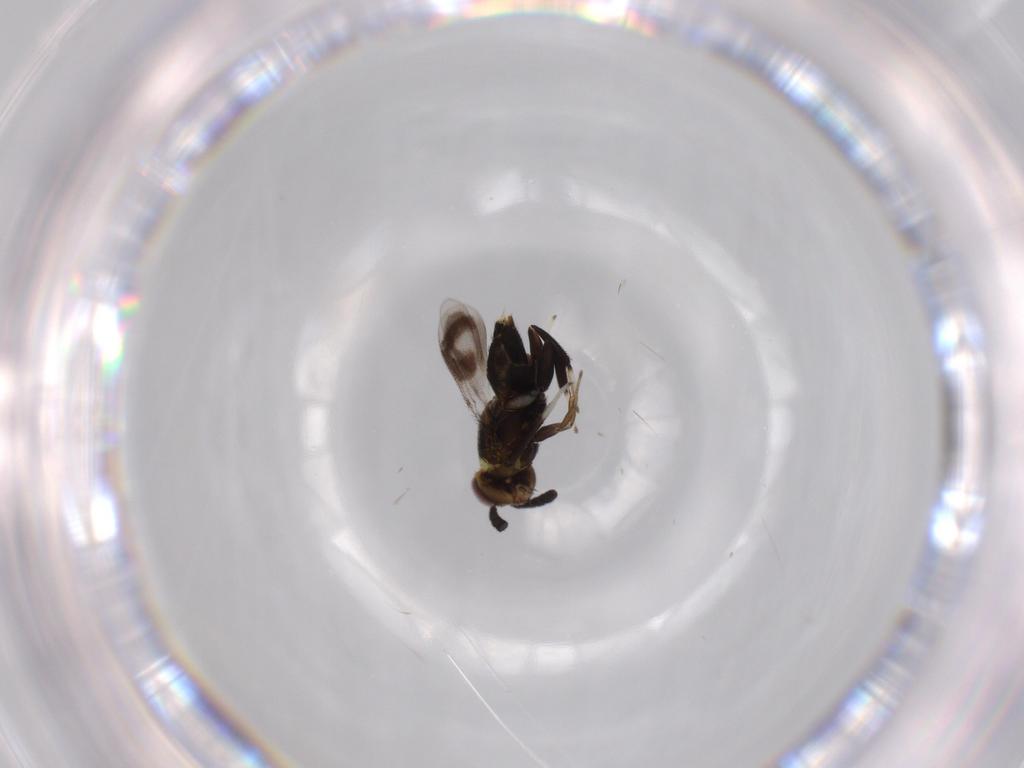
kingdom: Animalia
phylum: Arthropoda
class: Insecta
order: Hymenoptera
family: Aphelinidae
